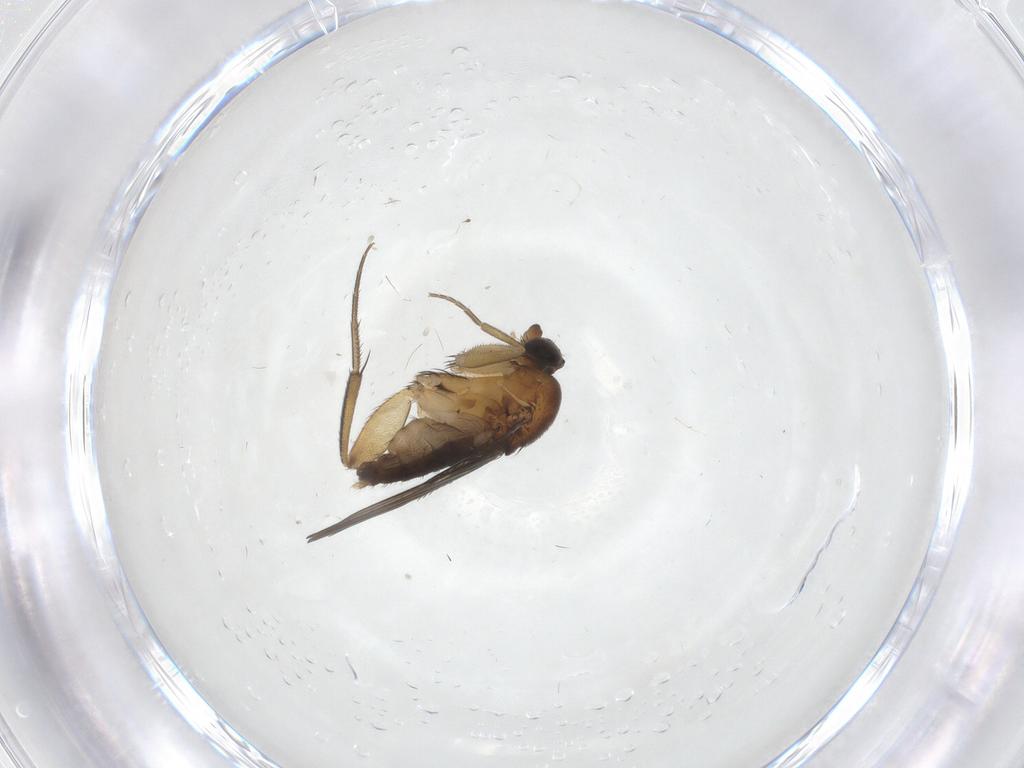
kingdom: Animalia
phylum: Arthropoda
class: Insecta
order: Diptera
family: Phoridae
